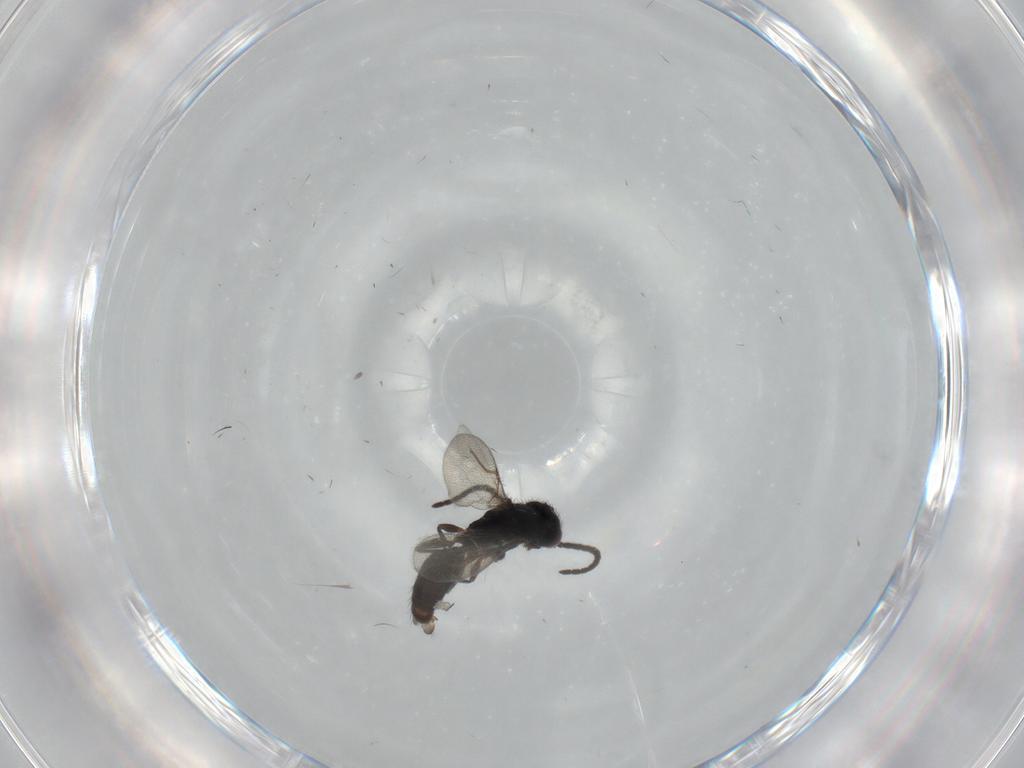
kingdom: Animalia
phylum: Arthropoda
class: Insecta
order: Hymenoptera
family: Bethylidae
